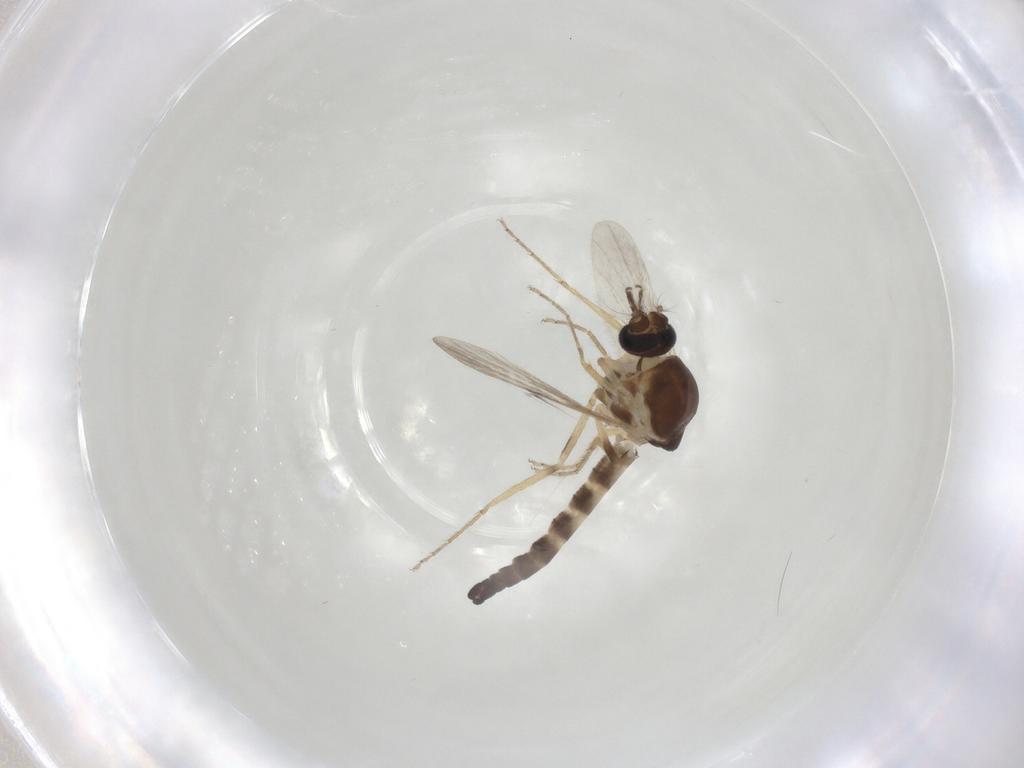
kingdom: Animalia
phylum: Arthropoda
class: Insecta
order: Diptera
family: Ceratopogonidae
